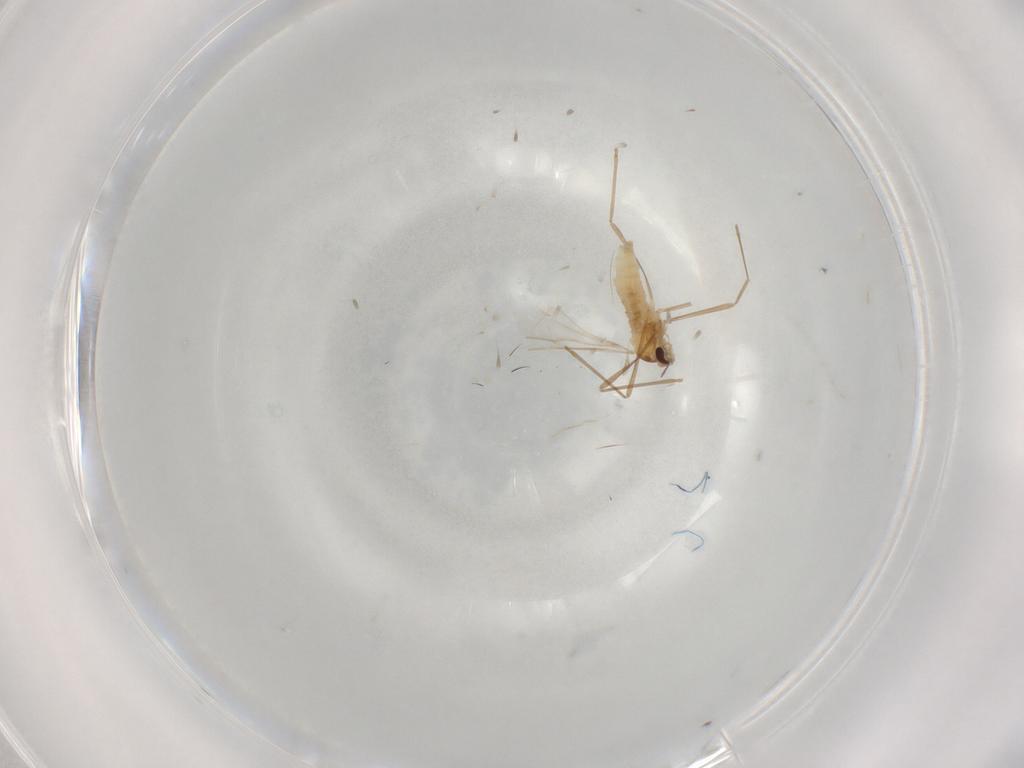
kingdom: Animalia
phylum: Arthropoda
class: Insecta
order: Diptera
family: Cecidomyiidae
